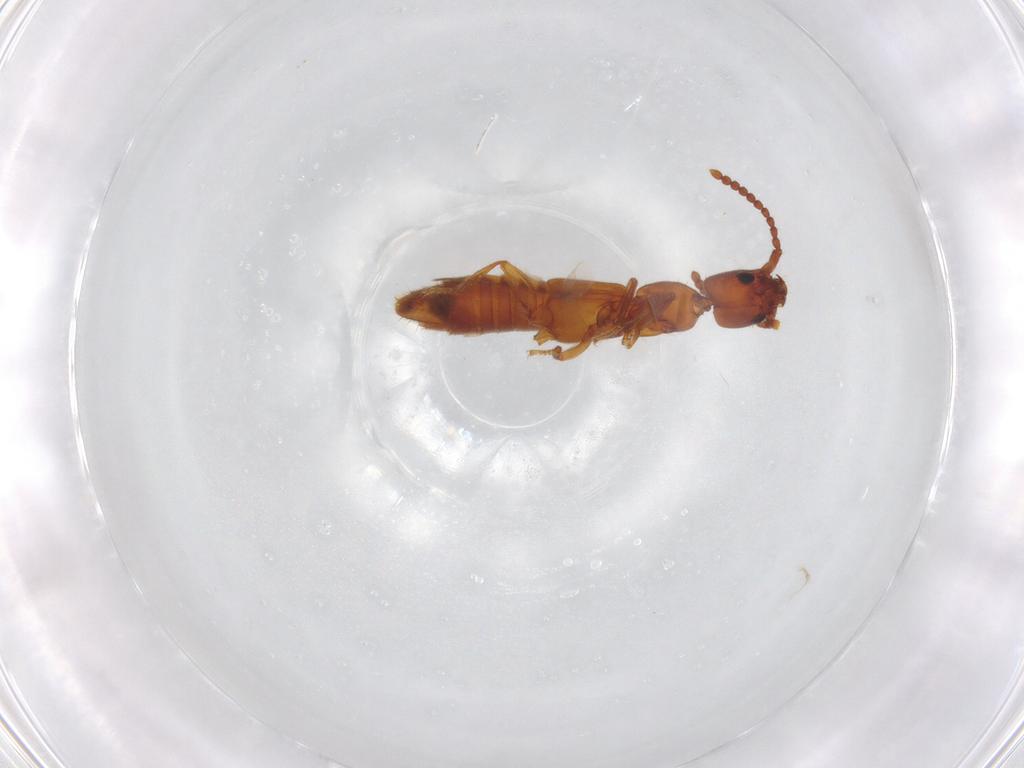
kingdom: Animalia
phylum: Arthropoda
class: Insecta
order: Coleoptera
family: Staphylinidae
